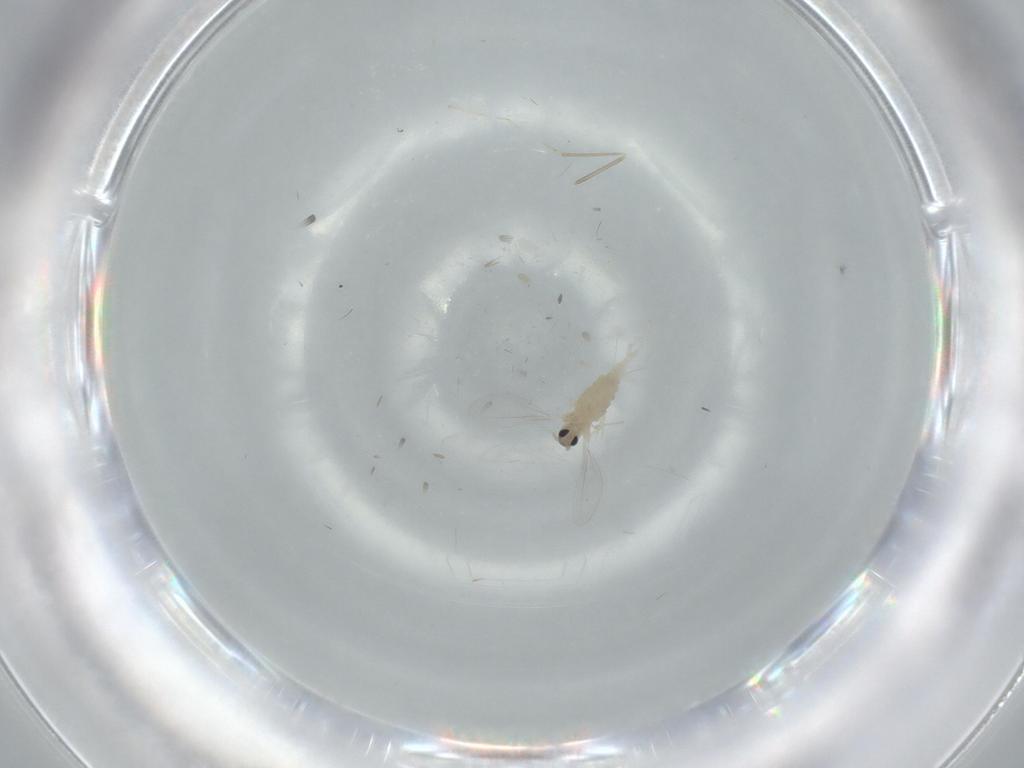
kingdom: Animalia
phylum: Arthropoda
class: Insecta
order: Diptera
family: Cecidomyiidae
